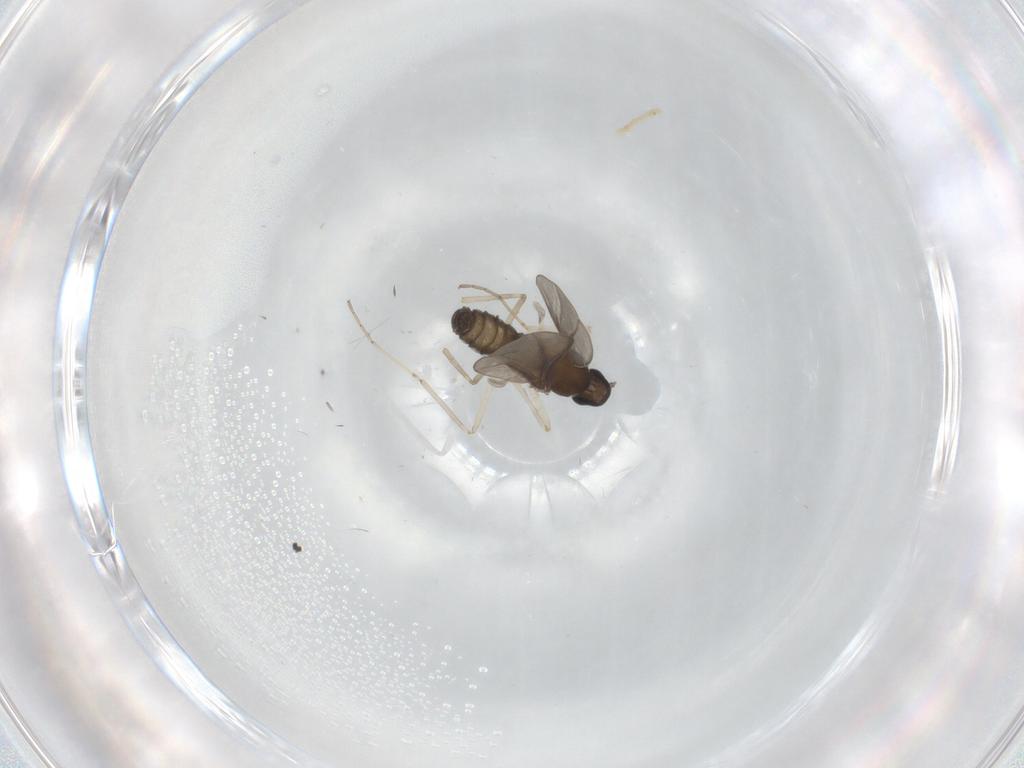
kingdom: Animalia
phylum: Arthropoda
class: Insecta
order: Diptera
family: Cecidomyiidae
